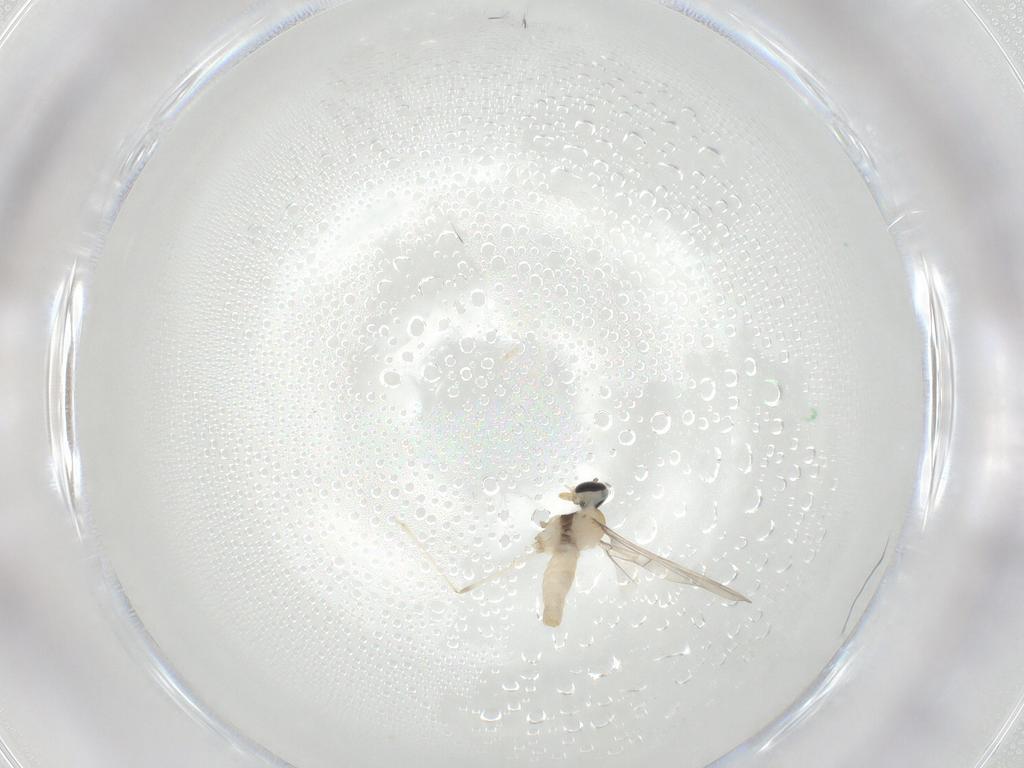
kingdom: Animalia
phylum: Arthropoda
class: Insecta
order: Diptera
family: Cecidomyiidae
